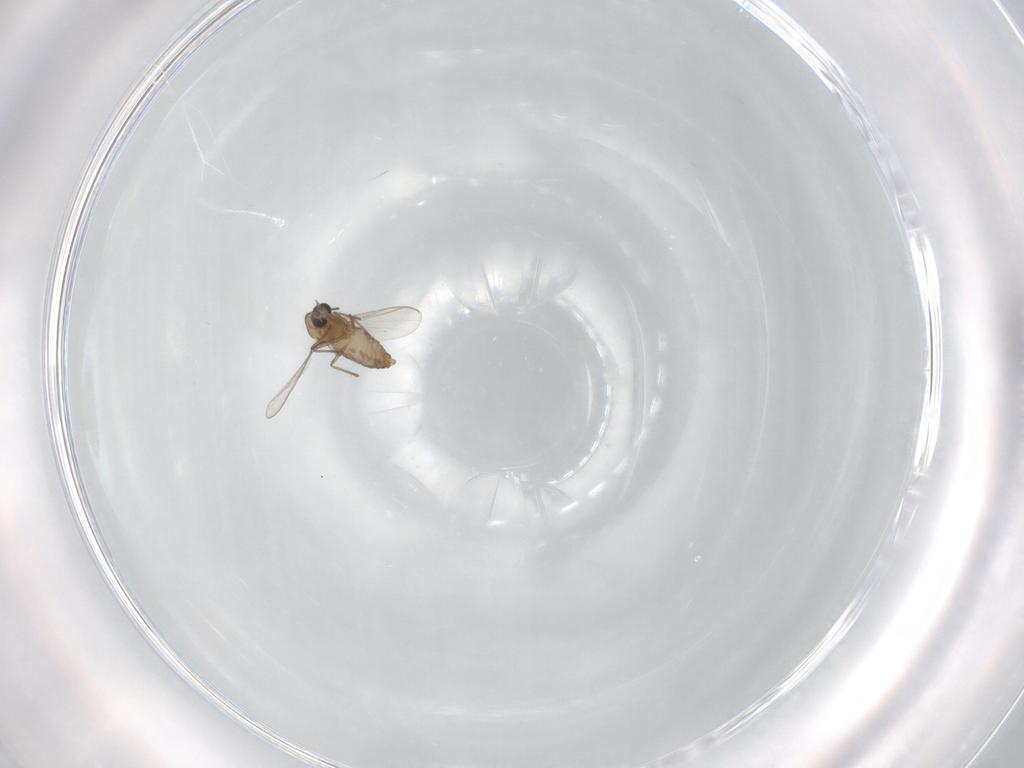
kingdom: Animalia
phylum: Arthropoda
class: Insecta
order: Diptera
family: Chironomidae
